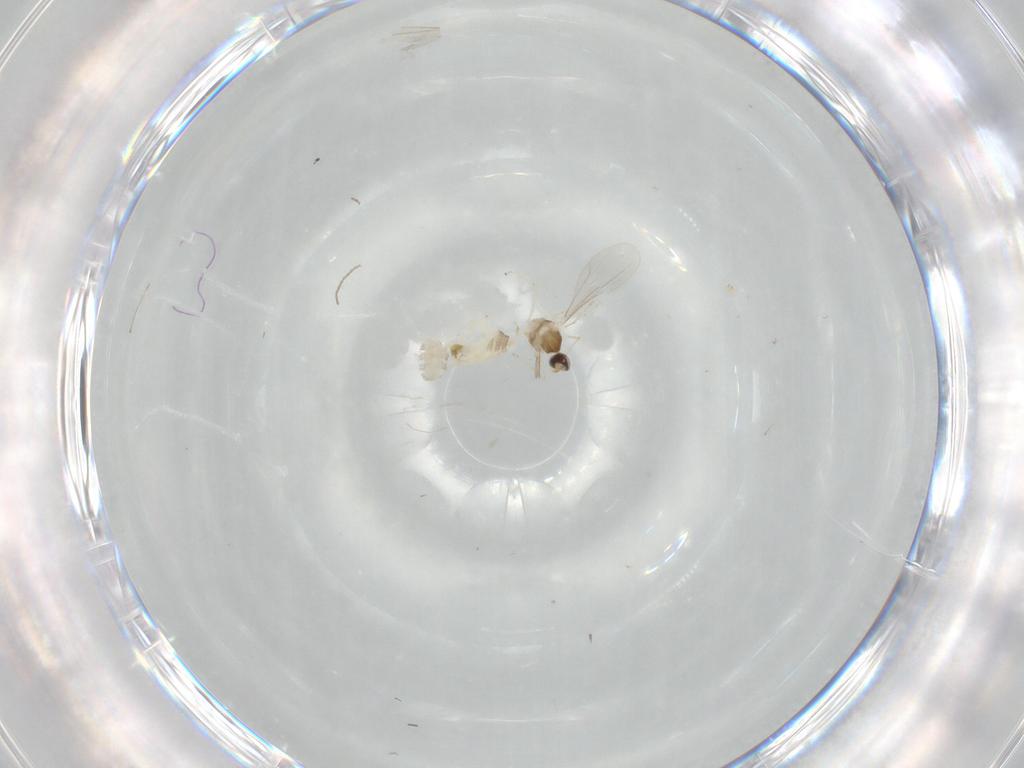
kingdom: Animalia
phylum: Arthropoda
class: Insecta
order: Diptera
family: Cecidomyiidae
